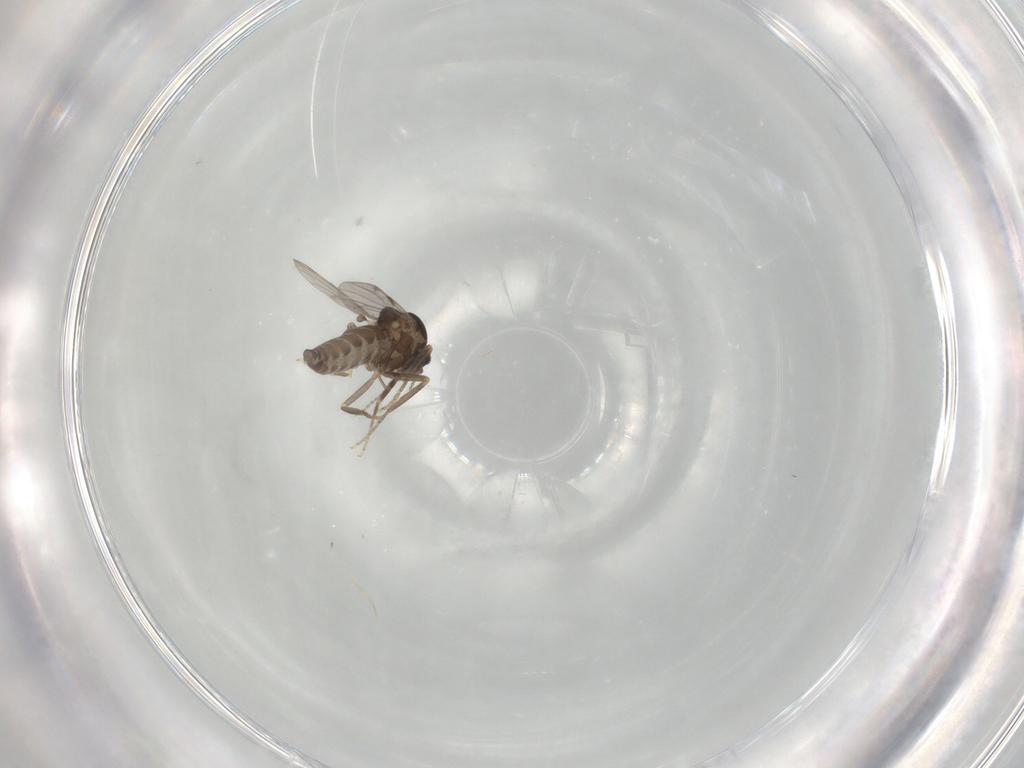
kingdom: Animalia
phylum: Arthropoda
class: Insecta
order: Diptera
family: Ceratopogonidae
